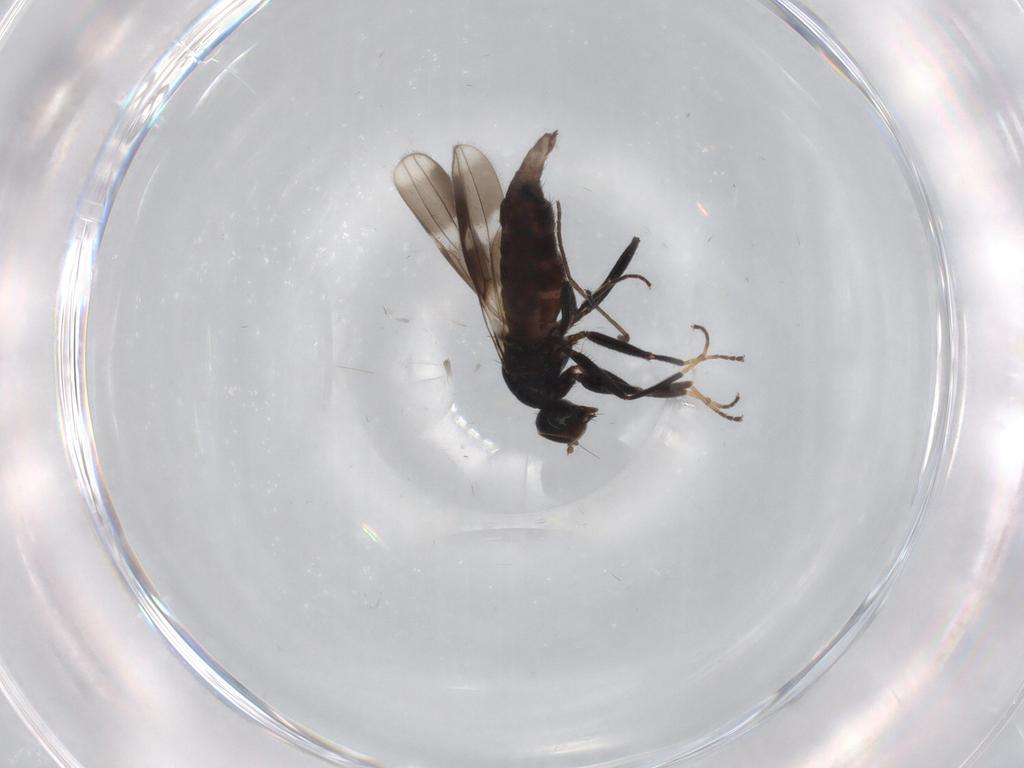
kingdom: Animalia
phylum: Arthropoda
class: Insecta
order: Diptera
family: Hybotidae
